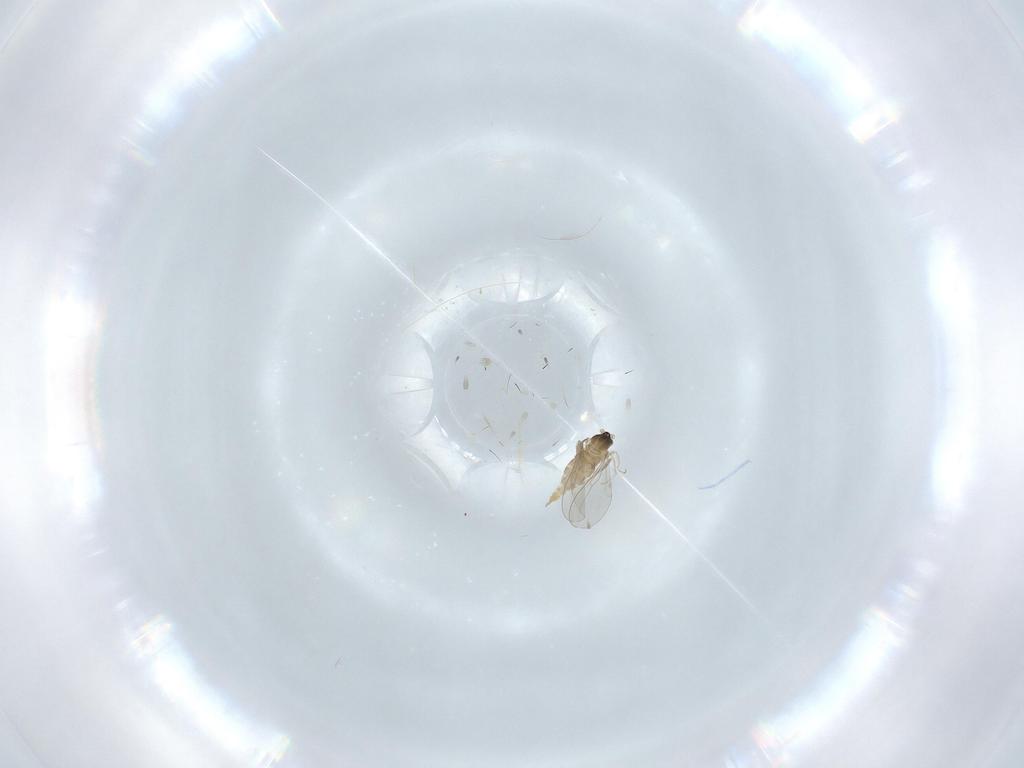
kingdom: Animalia
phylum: Arthropoda
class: Insecta
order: Diptera
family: Cecidomyiidae
